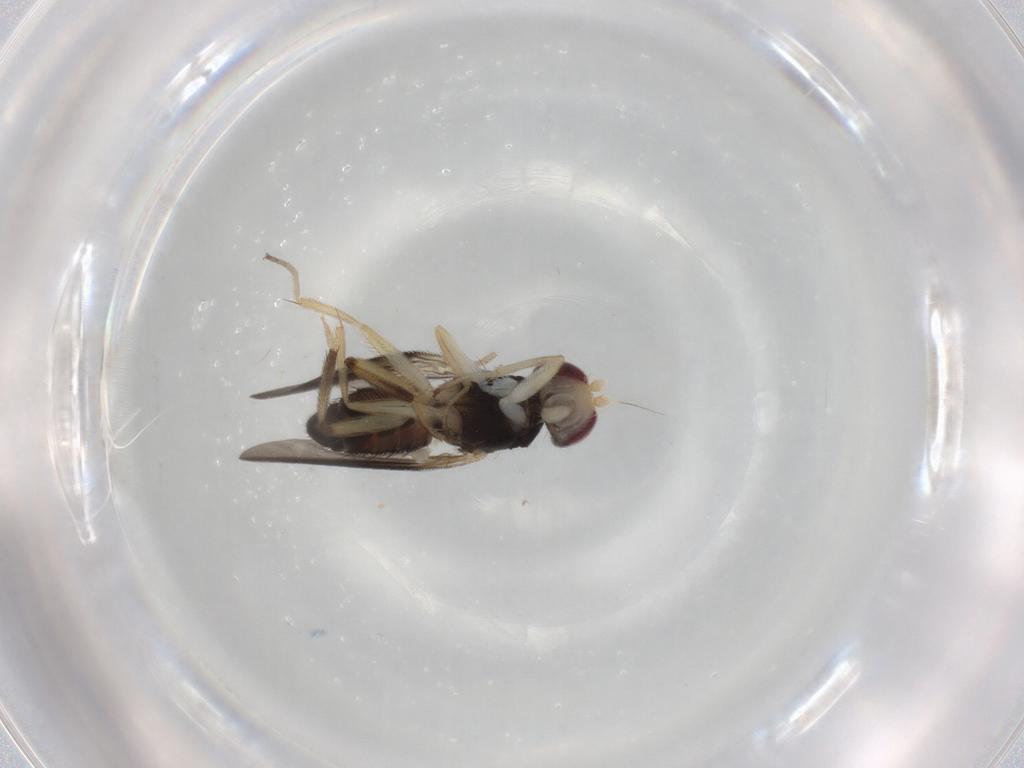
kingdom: Animalia
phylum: Arthropoda
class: Insecta
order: Diptera
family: Clusiidae
